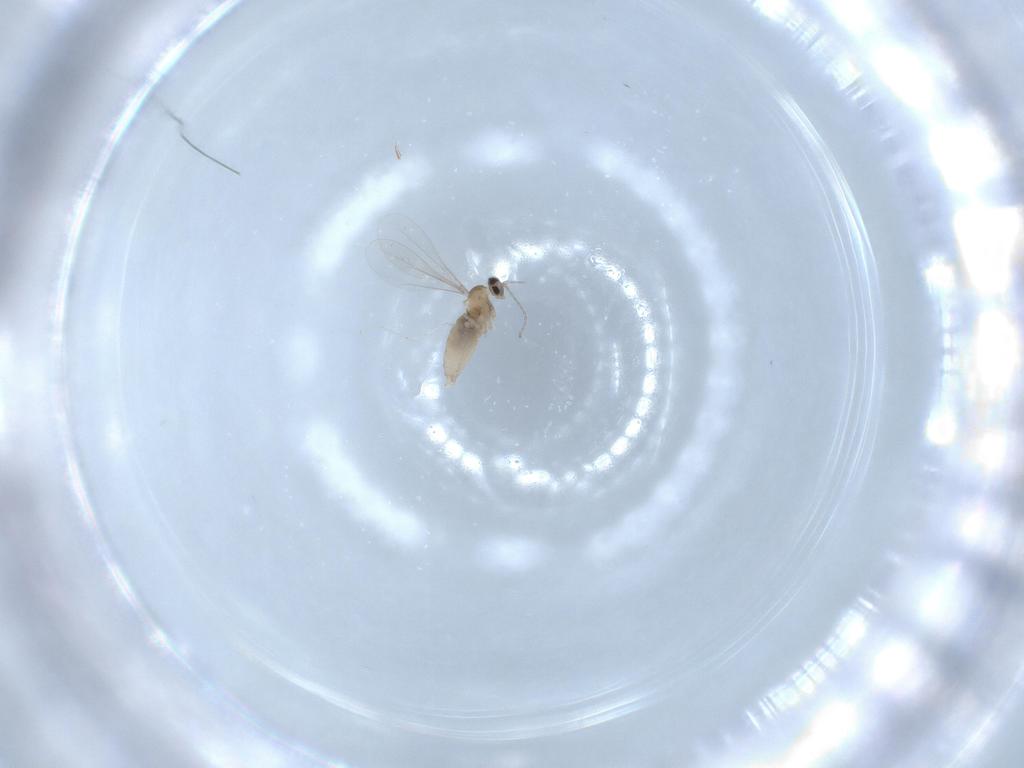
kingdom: Animalia
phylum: Arthropoda
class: Insecta
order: Diptera
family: Cecidomyiidae
